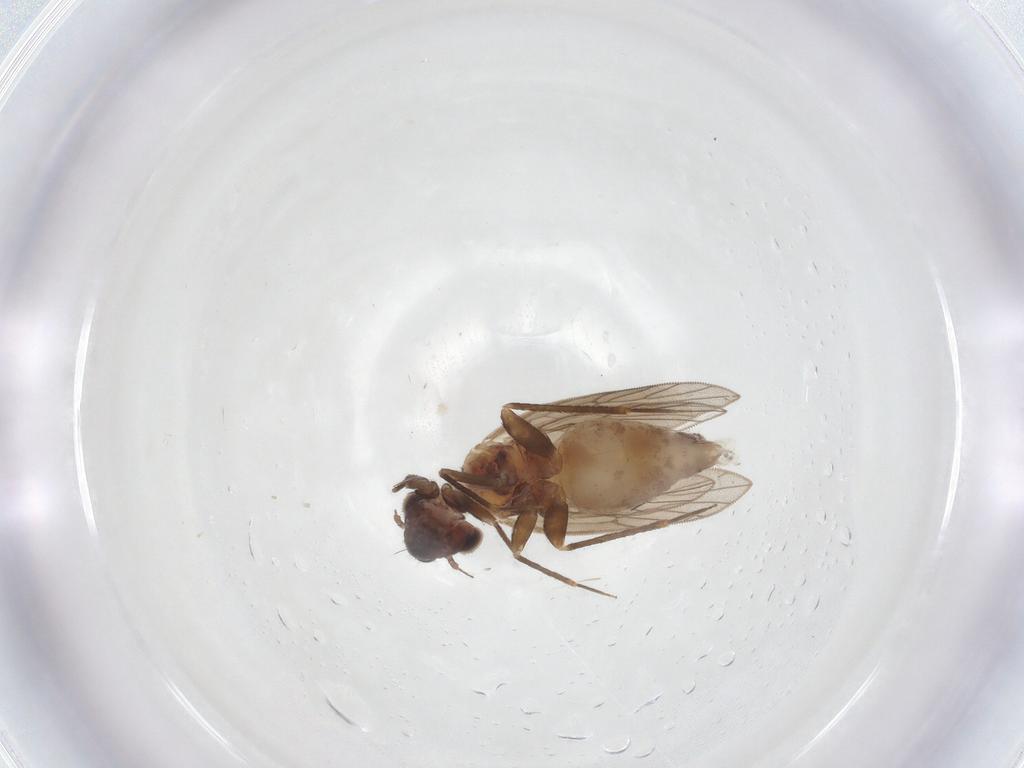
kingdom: Animalia
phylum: Arthropoda
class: Insecta
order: Psocodea
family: Lepidopsocidae
